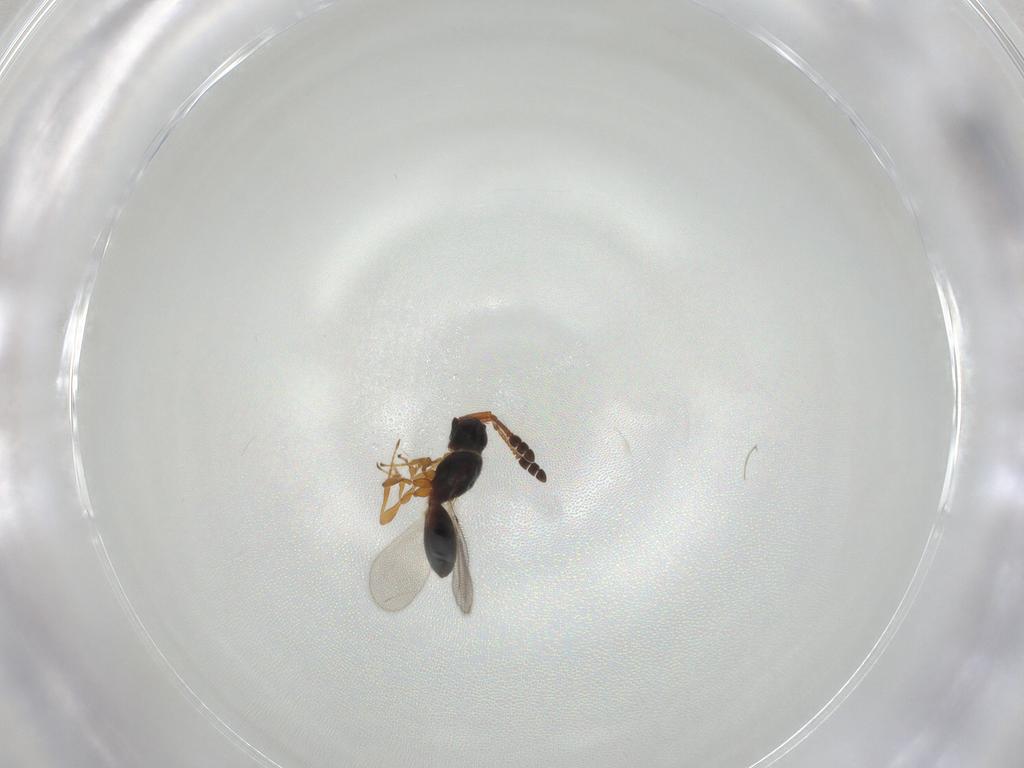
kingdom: Animalia
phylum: Arthropoda
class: Insecta
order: Hymenoptera
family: Diapriidae
